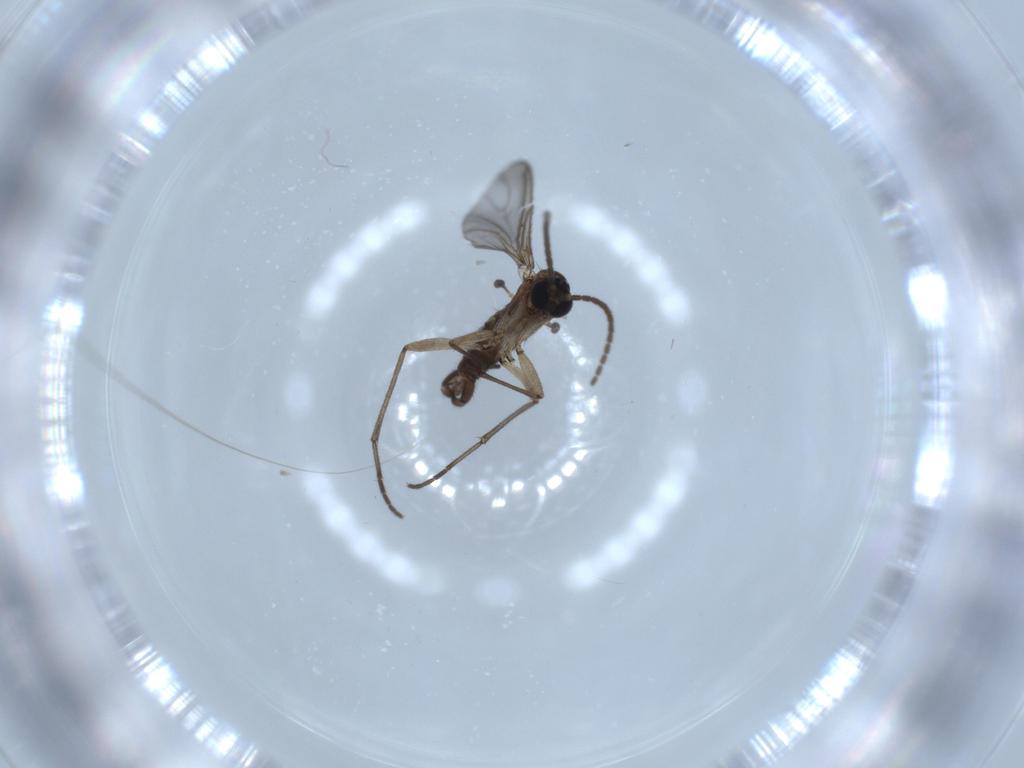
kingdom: Animalia
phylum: Arthropoda
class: Insecta
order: Diptera
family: Sciaridae
